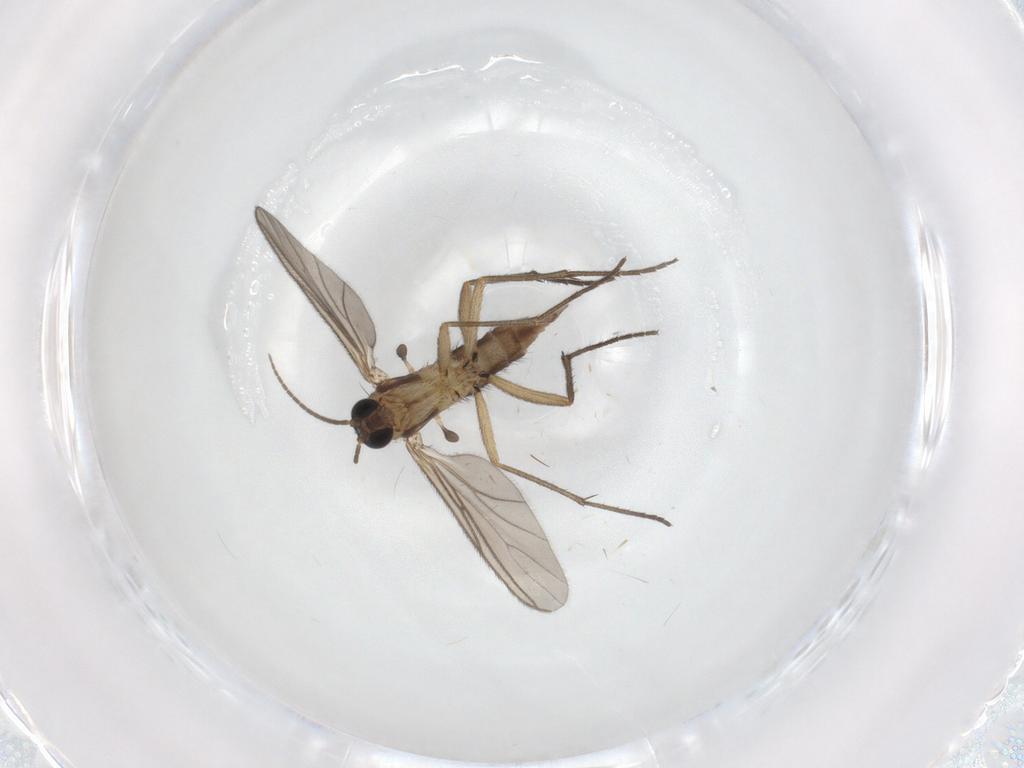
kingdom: Animalia
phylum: Arthropoda
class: Insecta
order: Diptera
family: Sciaridae
